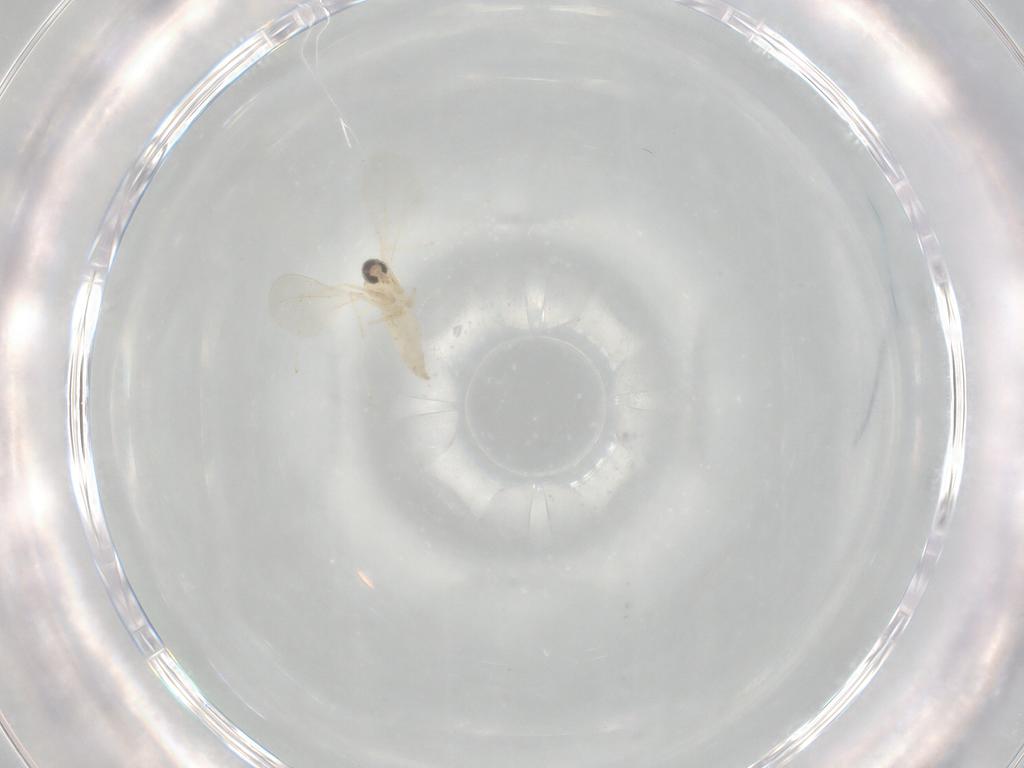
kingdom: Animalia
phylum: Arthropoda
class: Insecta
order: Diptera
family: Cecidomyiidae
